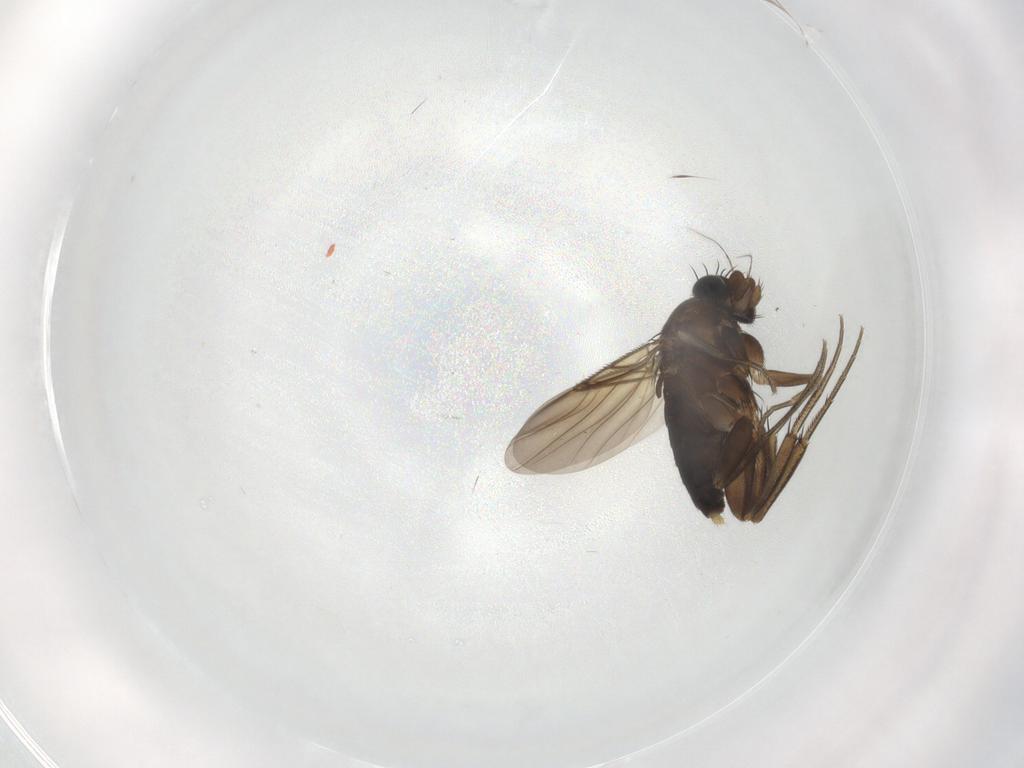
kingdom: Animalia
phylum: Arthropoda
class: Insecta
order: Diptera
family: Phoridae
